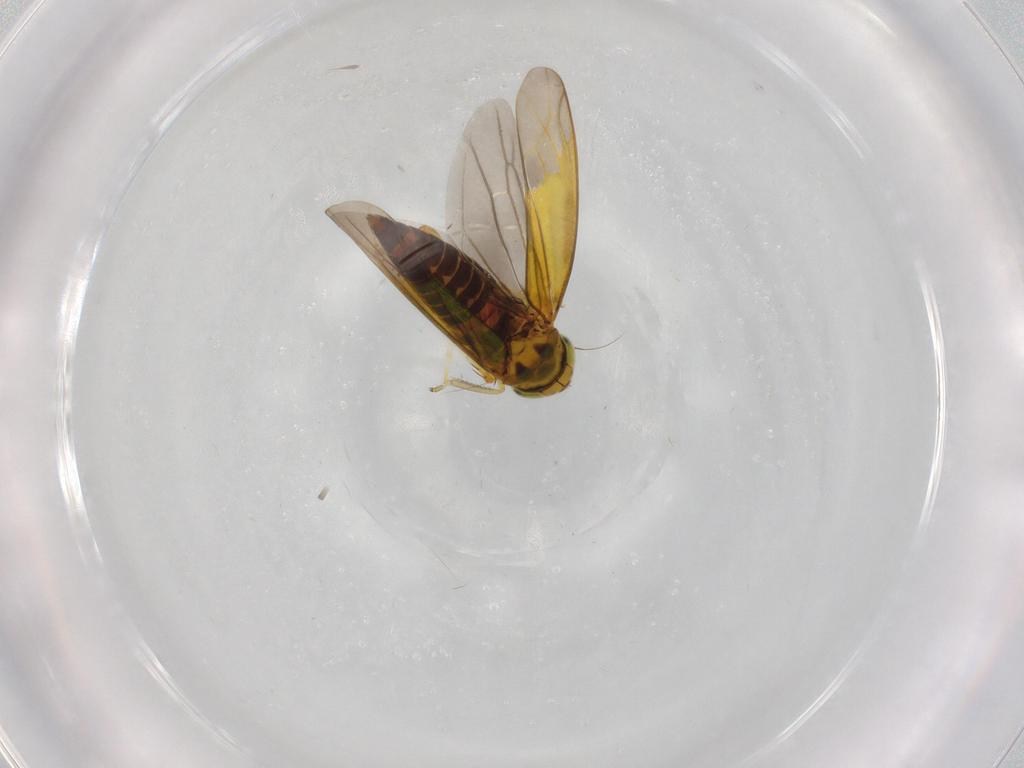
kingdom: Animalia
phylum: Arthropoda
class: Insecta
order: Hemiptera
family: Cicadellidae
